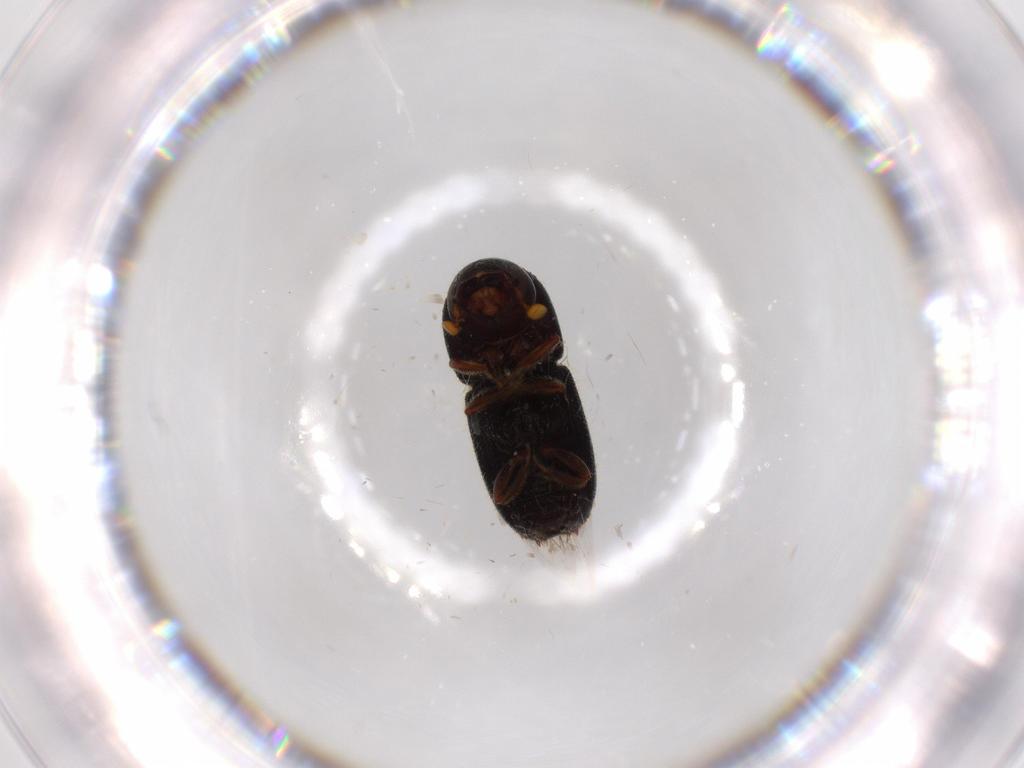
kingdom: Animalia
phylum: Arthropoda
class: Insecta
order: Coleoptera
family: Curculionidae
